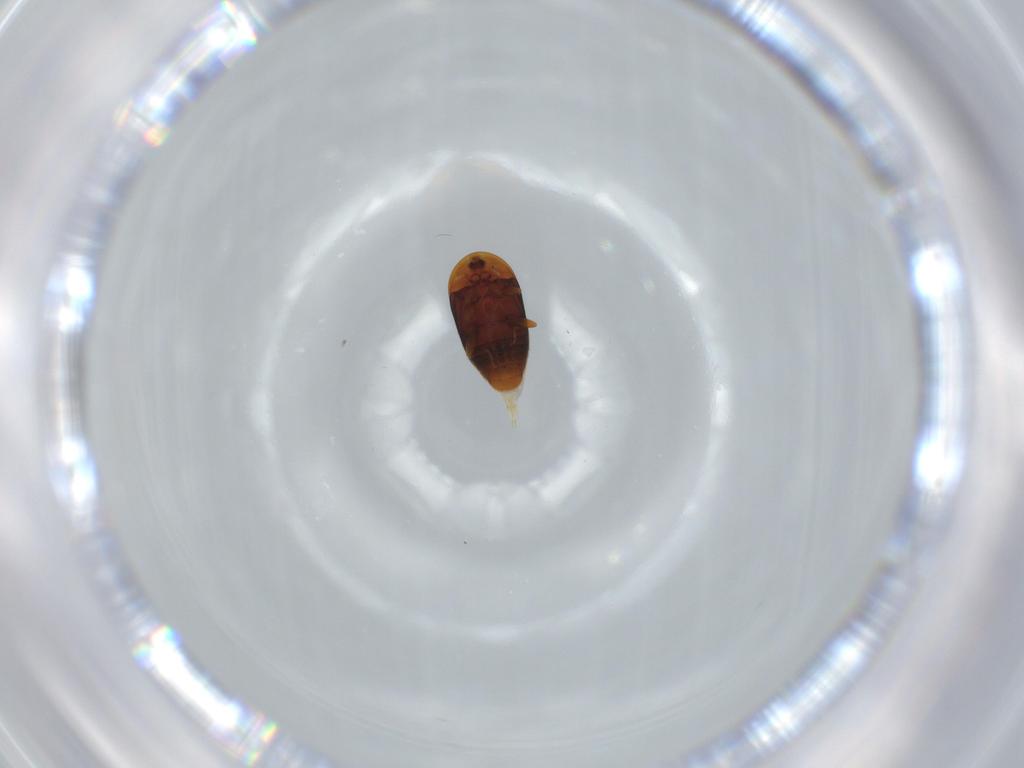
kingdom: Animalia
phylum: Arthropoda
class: Insecta
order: Coleoptera
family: Corylophidae
